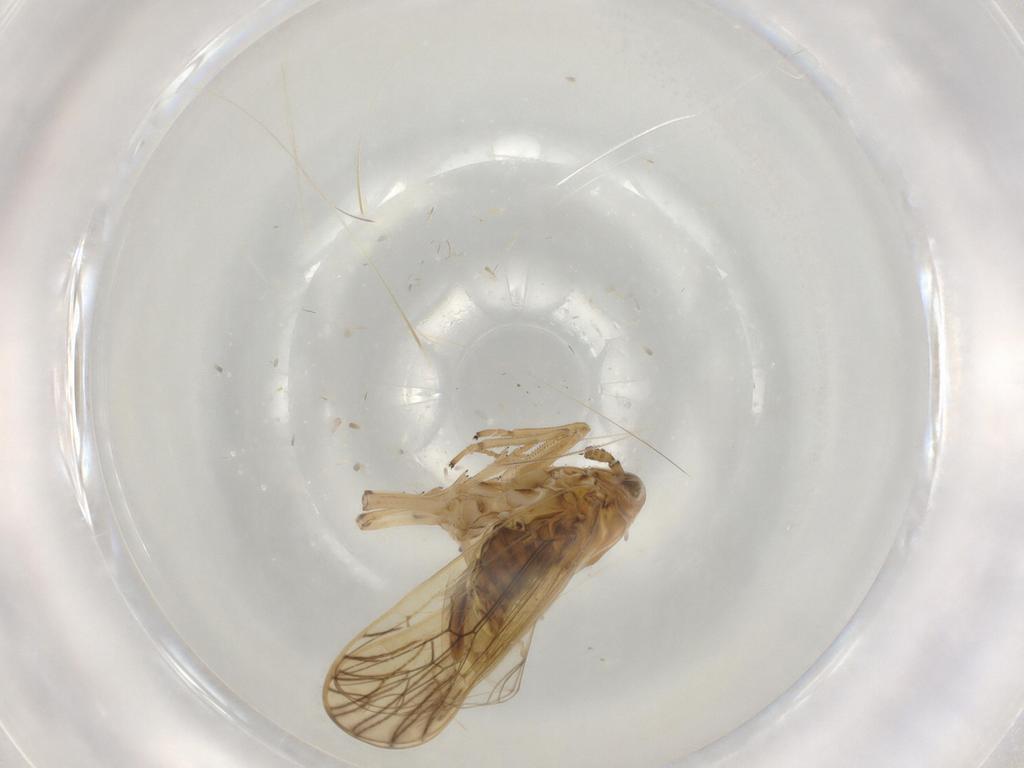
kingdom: Animalia
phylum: Arthropoda
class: Insecta
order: Hemiptera
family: Delphacidae
